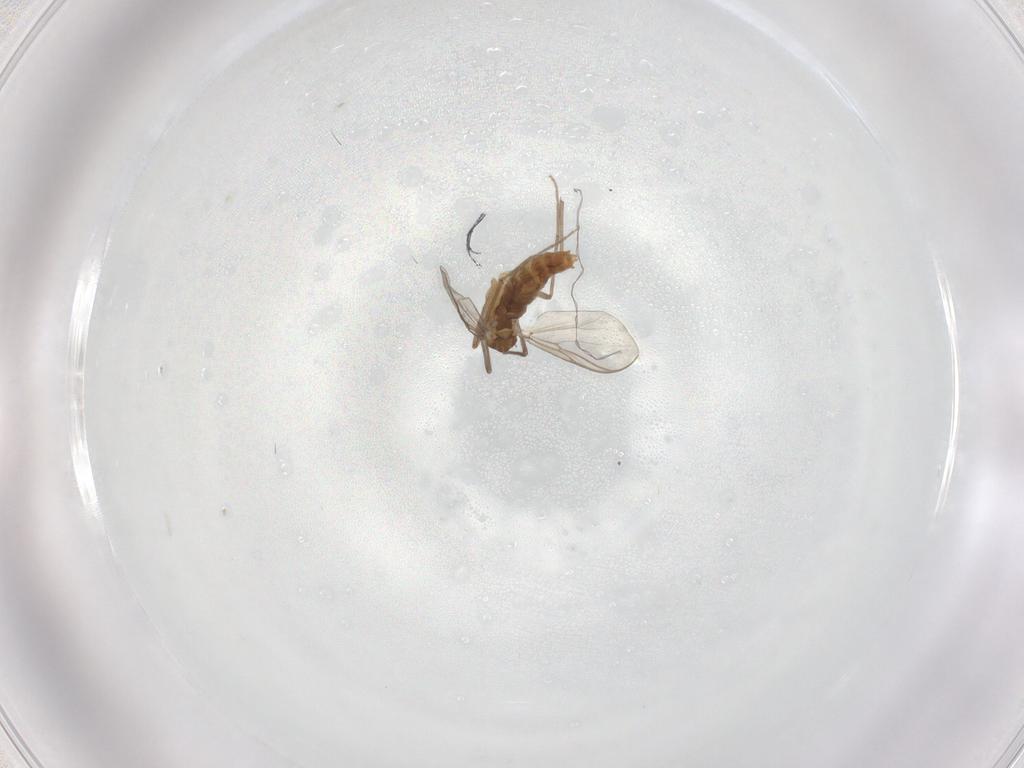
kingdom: Animalia
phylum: Arthropoda
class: Insecta
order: Diptera
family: Chironomidae
